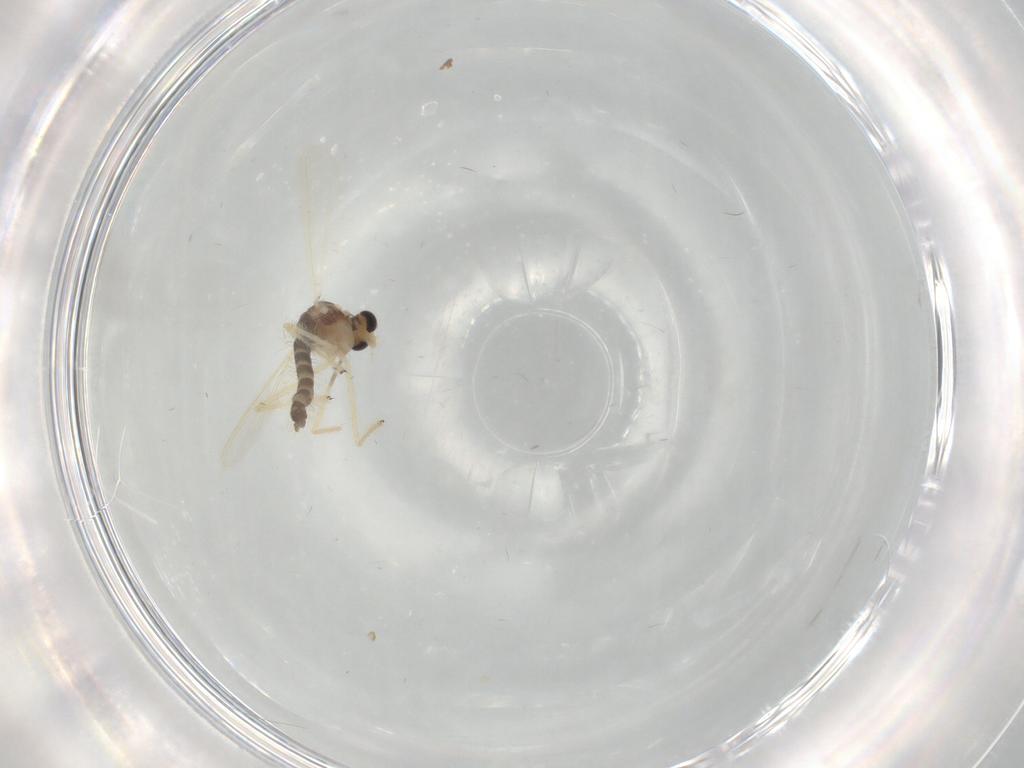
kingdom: Animalia
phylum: Arthropoda
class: Insecta
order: Diptera
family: Chironomidae
